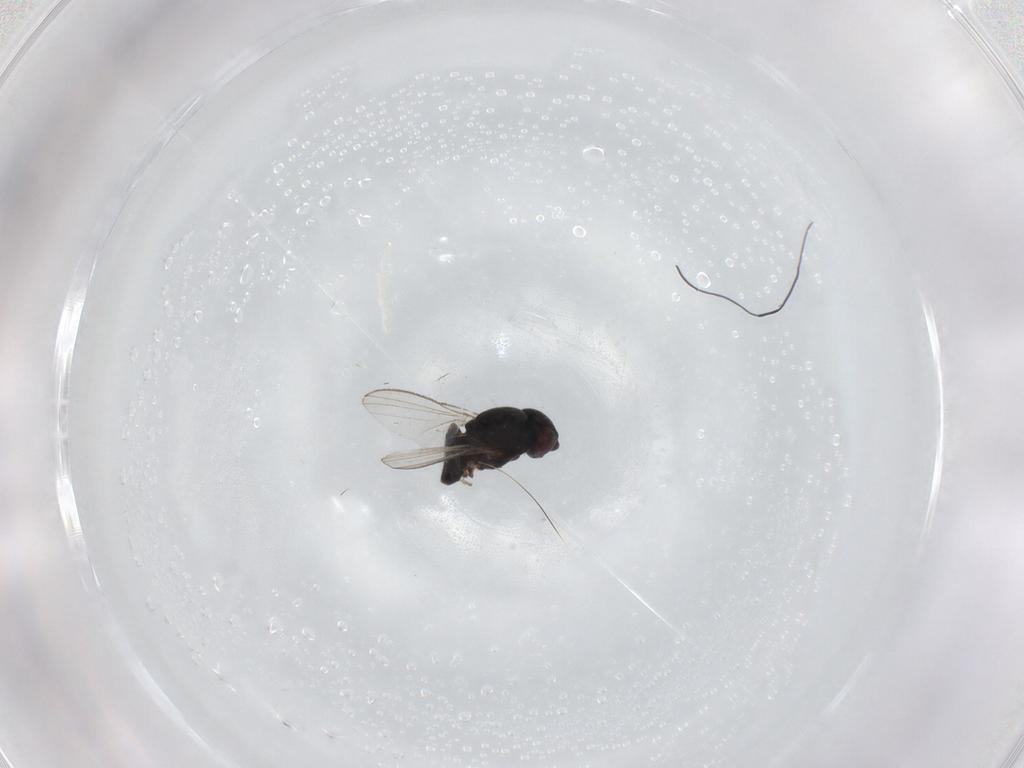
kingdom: Animalia
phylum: Arthropoda
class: Insecta
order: Diptera
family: Milichiidae
